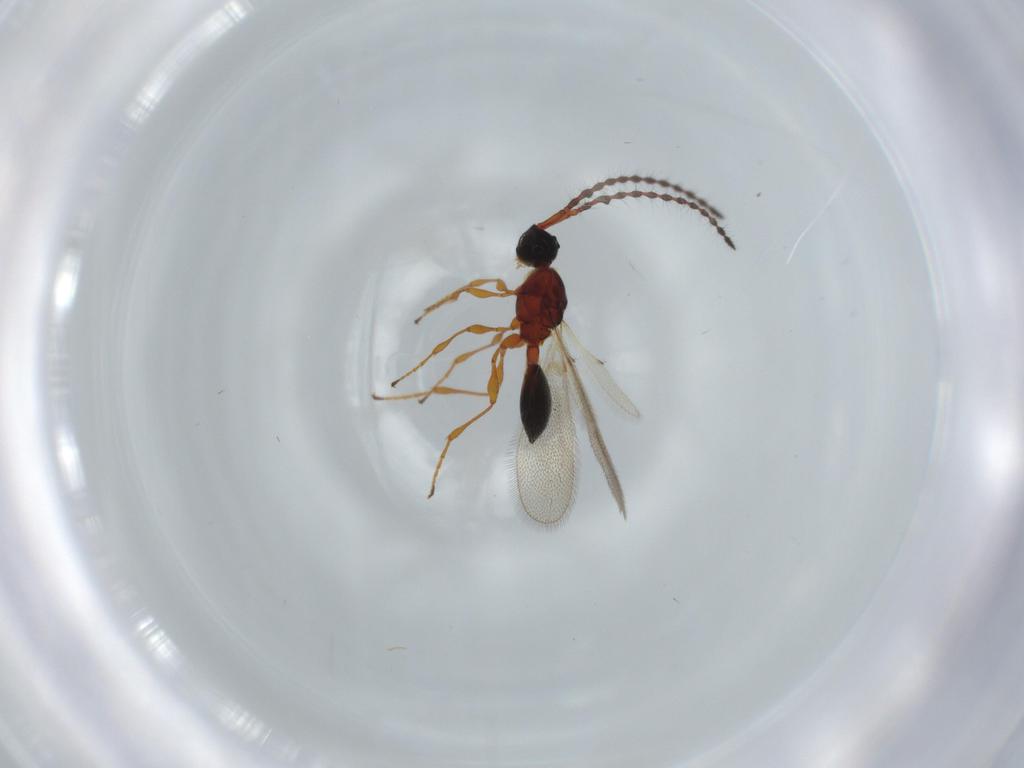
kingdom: Animalia
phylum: Arthropoda
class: Insecta
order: Hymenoptera
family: Diapriidae
